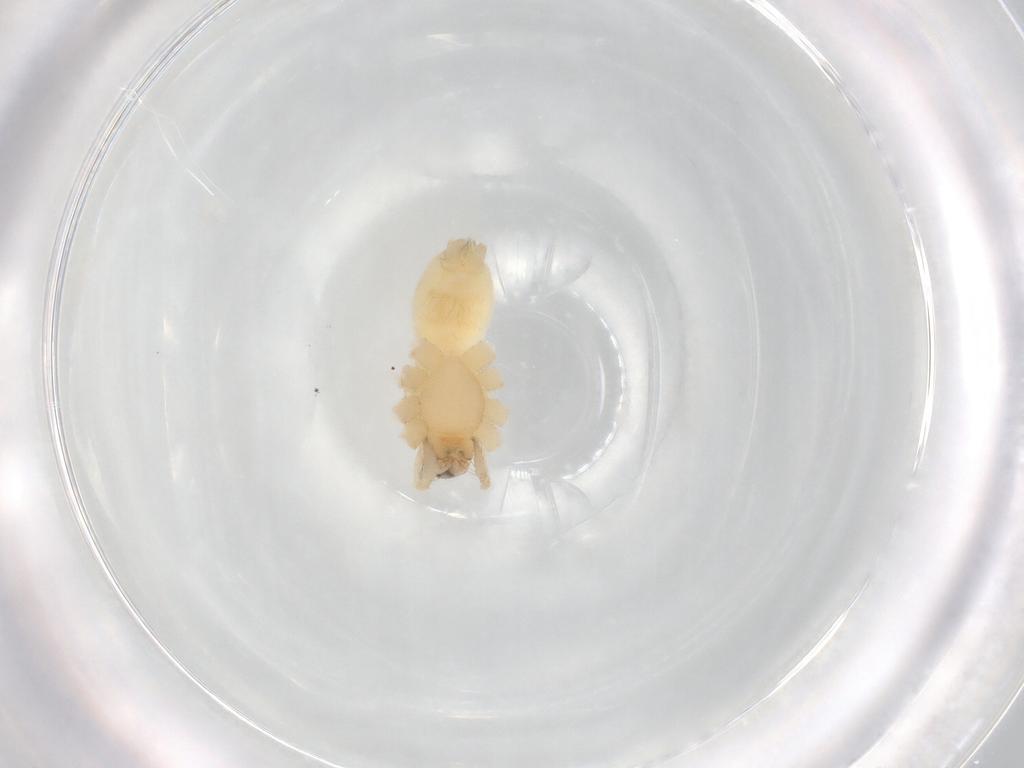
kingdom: Animalia
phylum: Arthropoda
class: Arachnida
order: Araneae
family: Gnaphosidae
